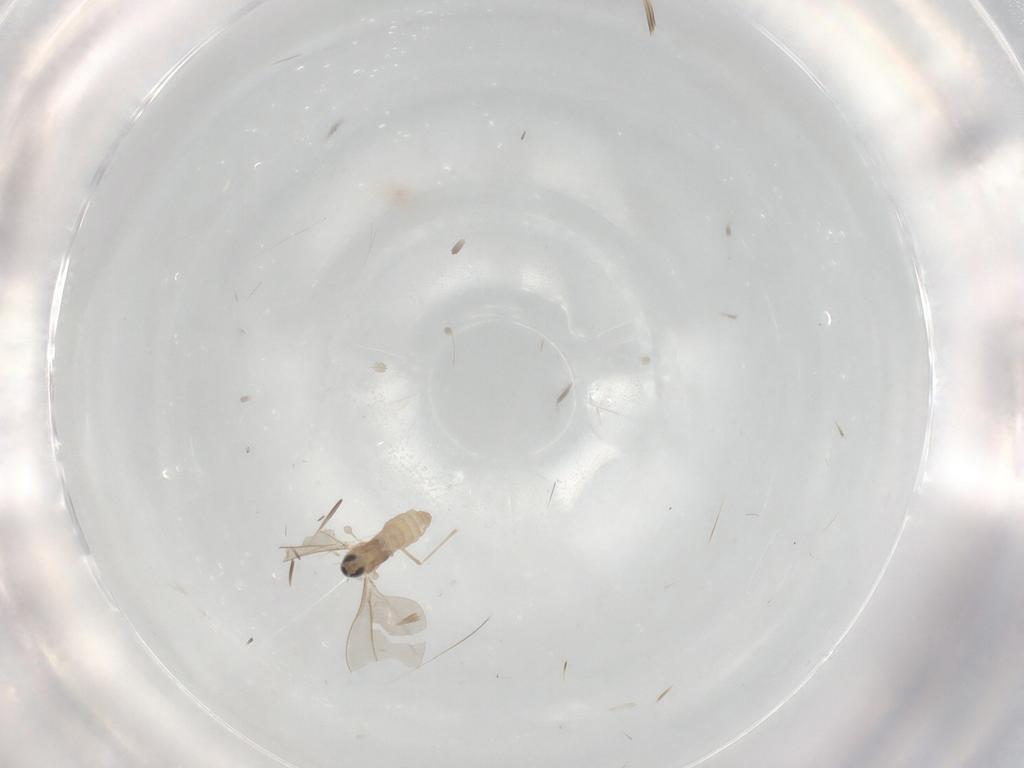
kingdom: Animalia
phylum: Arthropoda
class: Insecta
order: Diptera
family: Cecidomyiidae
